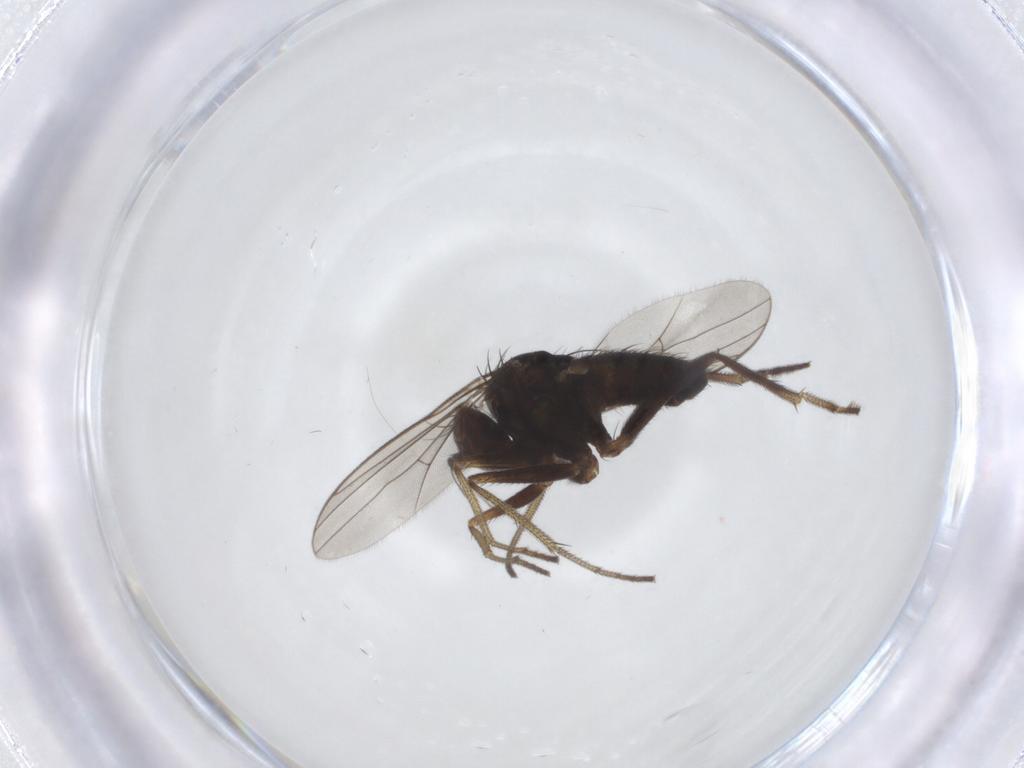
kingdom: Animalia
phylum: Arthropoda
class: Insecta
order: Diptera
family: Dolichopodidae
